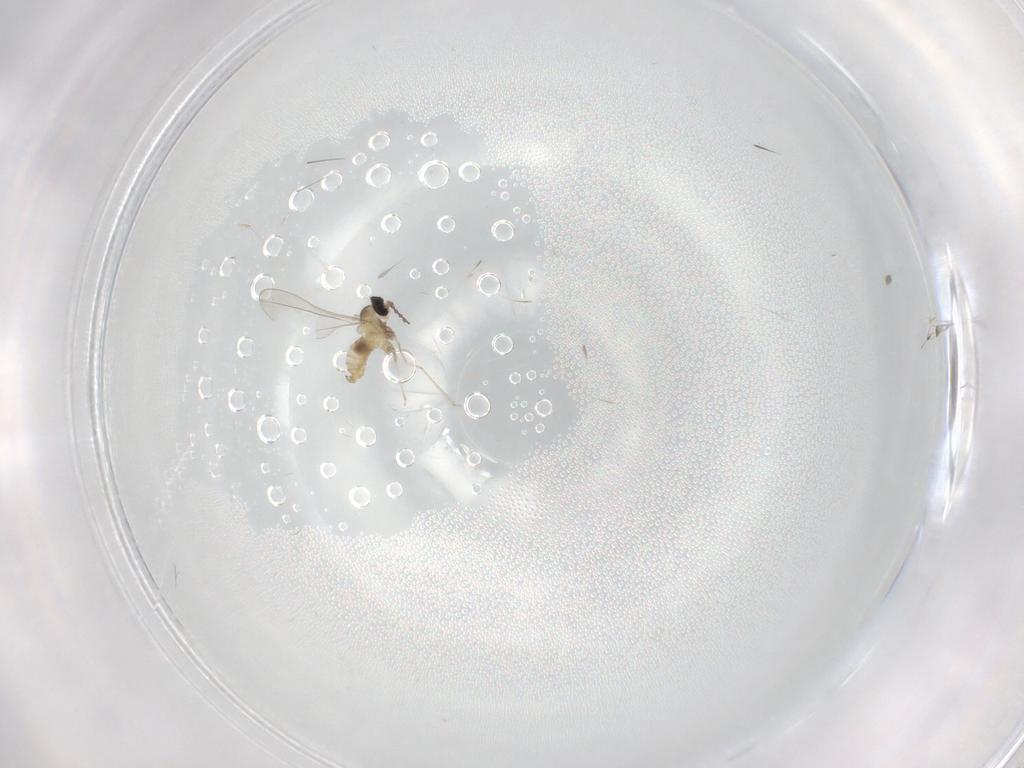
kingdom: Animalia
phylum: Arthropoda
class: Insecta
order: Diptera
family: Cecidomyiidae
